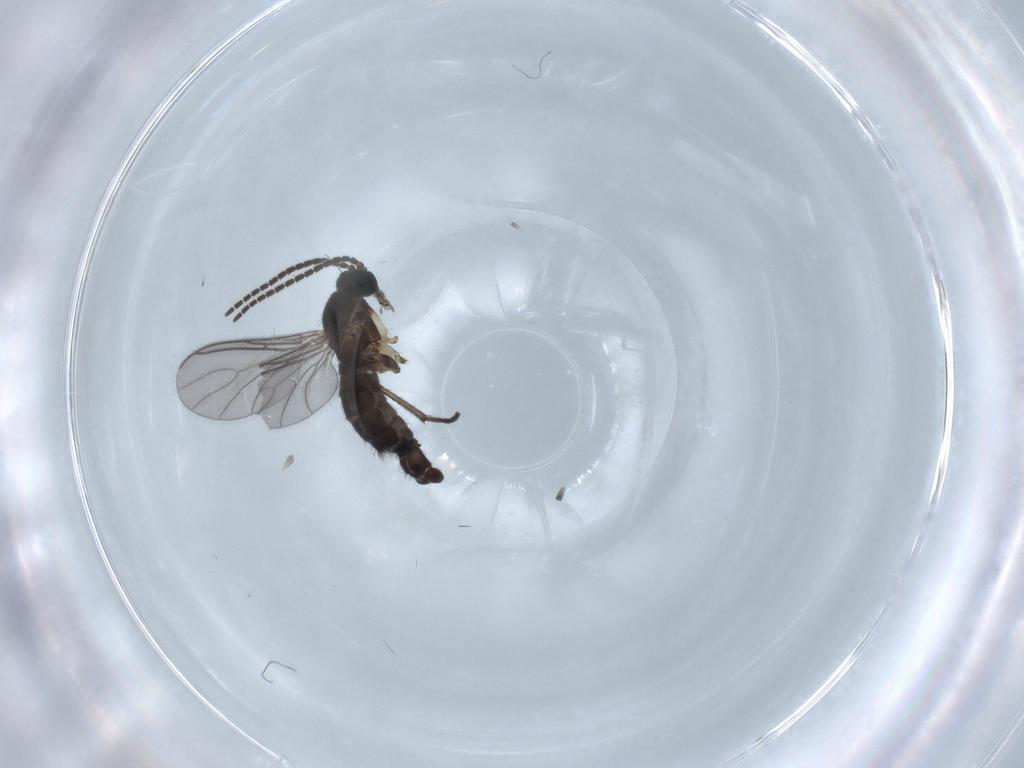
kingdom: Animalia
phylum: Arthropoda
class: Insecta
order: Diptera
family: Sciaridae
